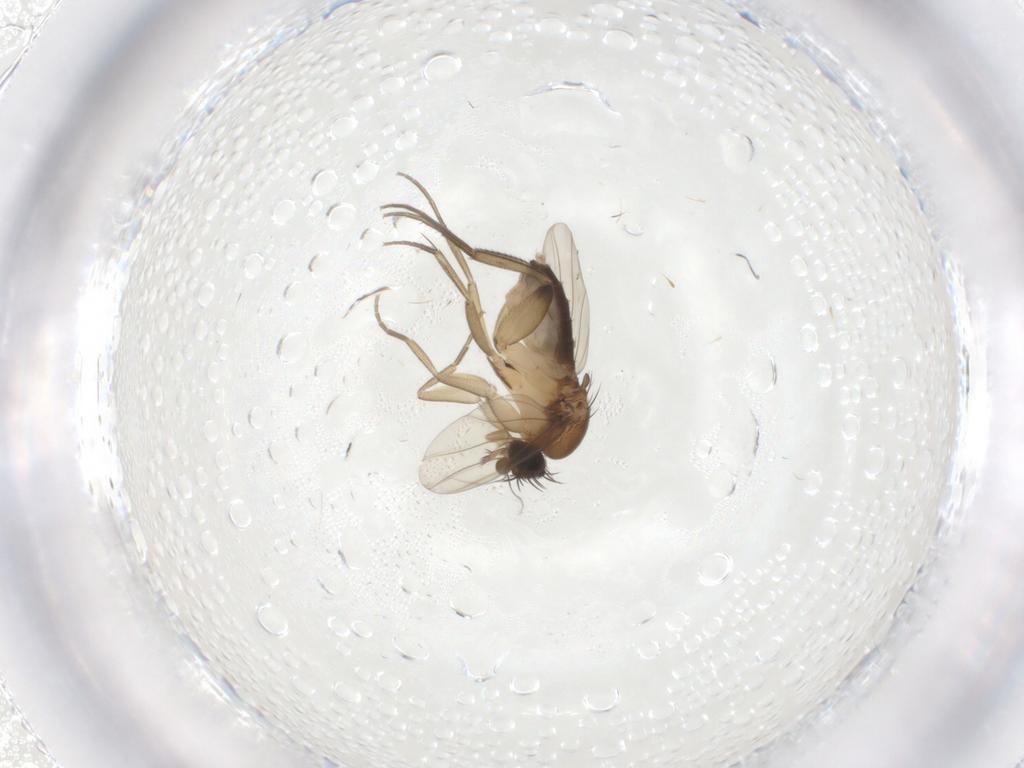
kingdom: Animalia
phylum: Arthropoda
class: Insecta
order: Diptera
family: Phoridae
